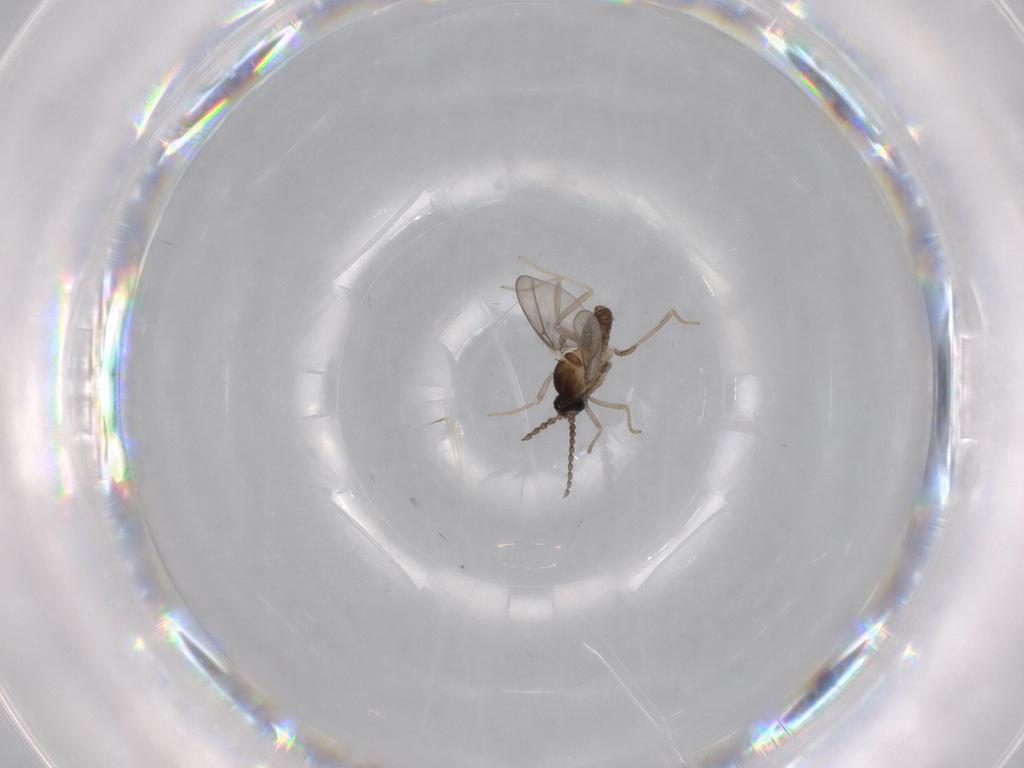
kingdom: Animalia
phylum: Arthropoda
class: Insecta
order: Diptera
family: Cecidomyiidae
